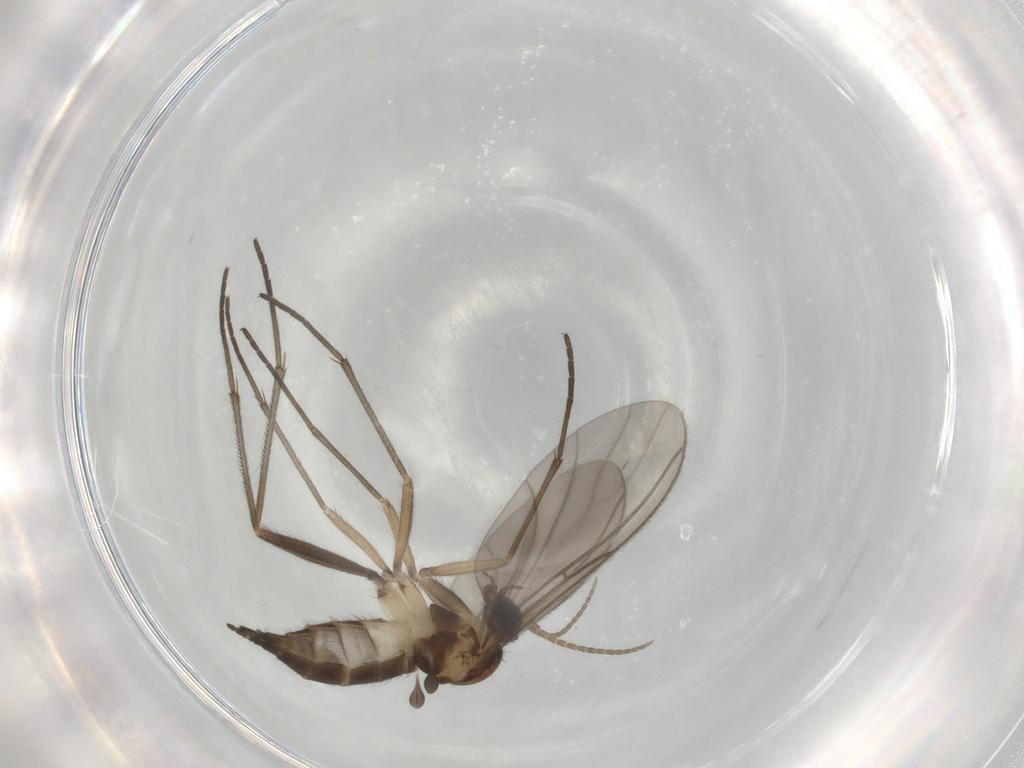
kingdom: Animalia
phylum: Arthropoda
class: Insecta
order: Diptera
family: Sciaridae
